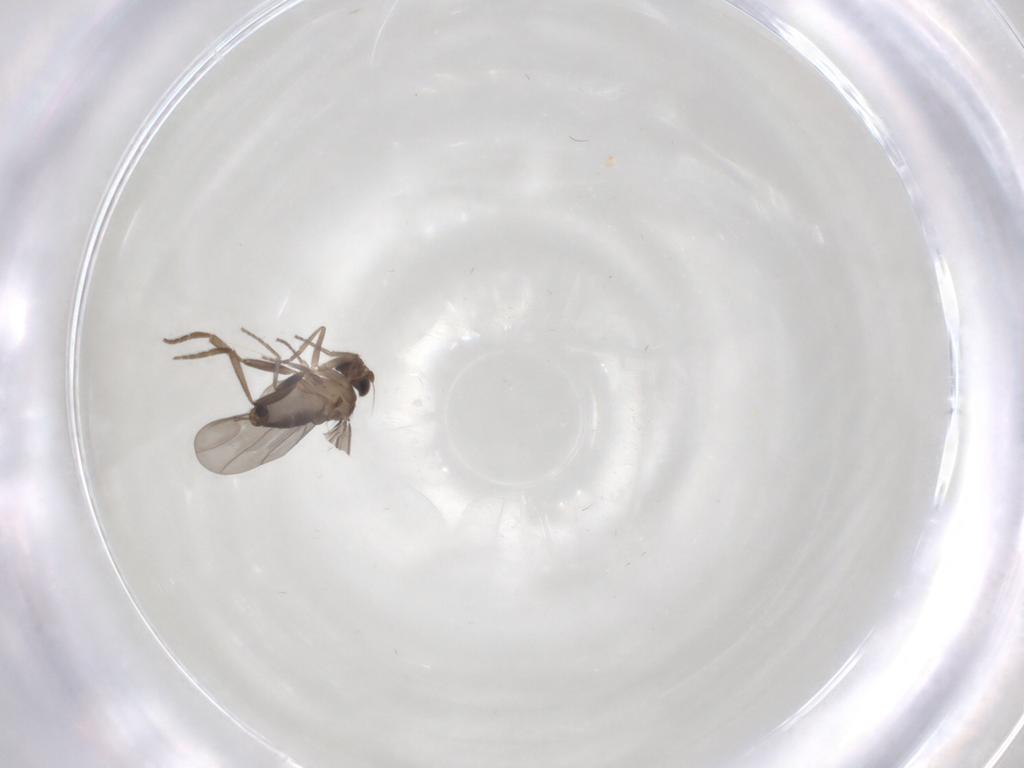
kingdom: Animalia
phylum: Arthropoda
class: Insecta
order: Diptera
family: Phoridae
